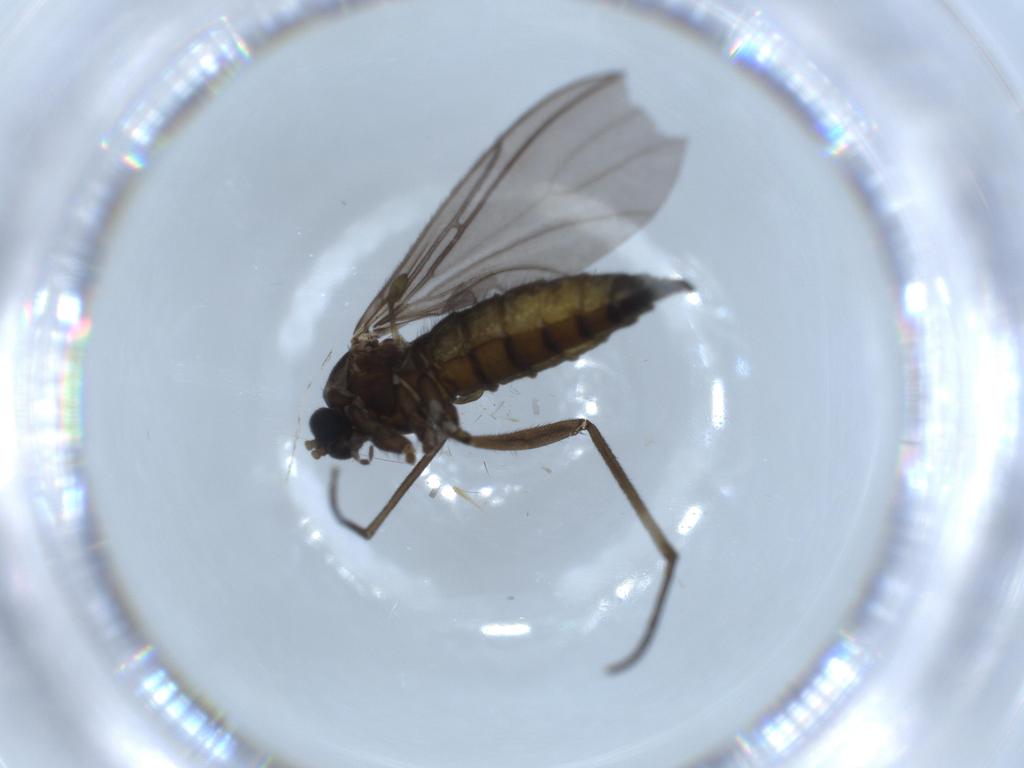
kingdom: Animalia
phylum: Arthropoda
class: Insecta
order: Diptera
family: Sciaridae
